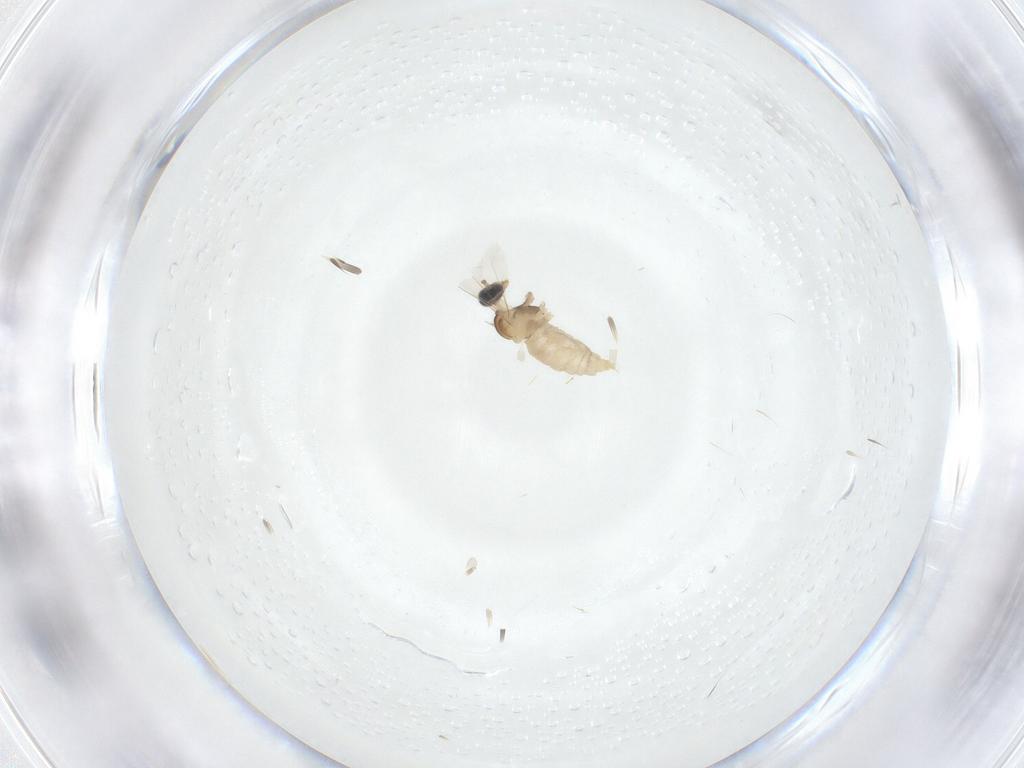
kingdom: Animalia
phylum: Arthropoda
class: Insecta
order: Diptera
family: Cecidomyiidae
